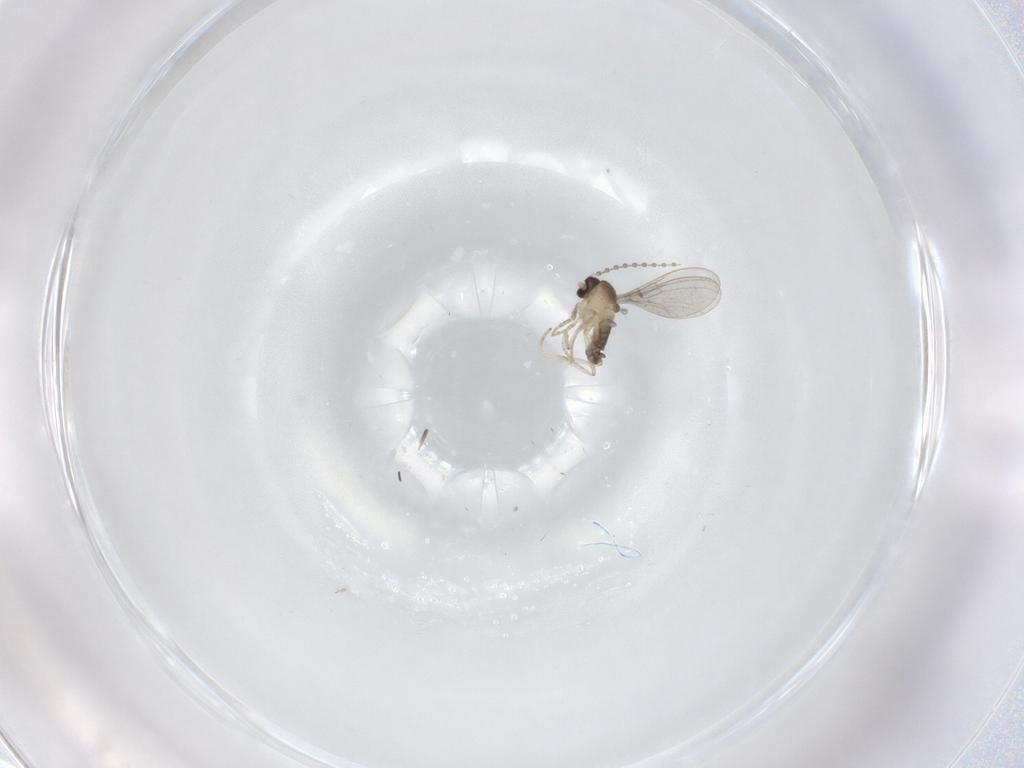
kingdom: Animalia
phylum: Arthropoda
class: Insecta
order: Diptera
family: Cecidomyiidae
